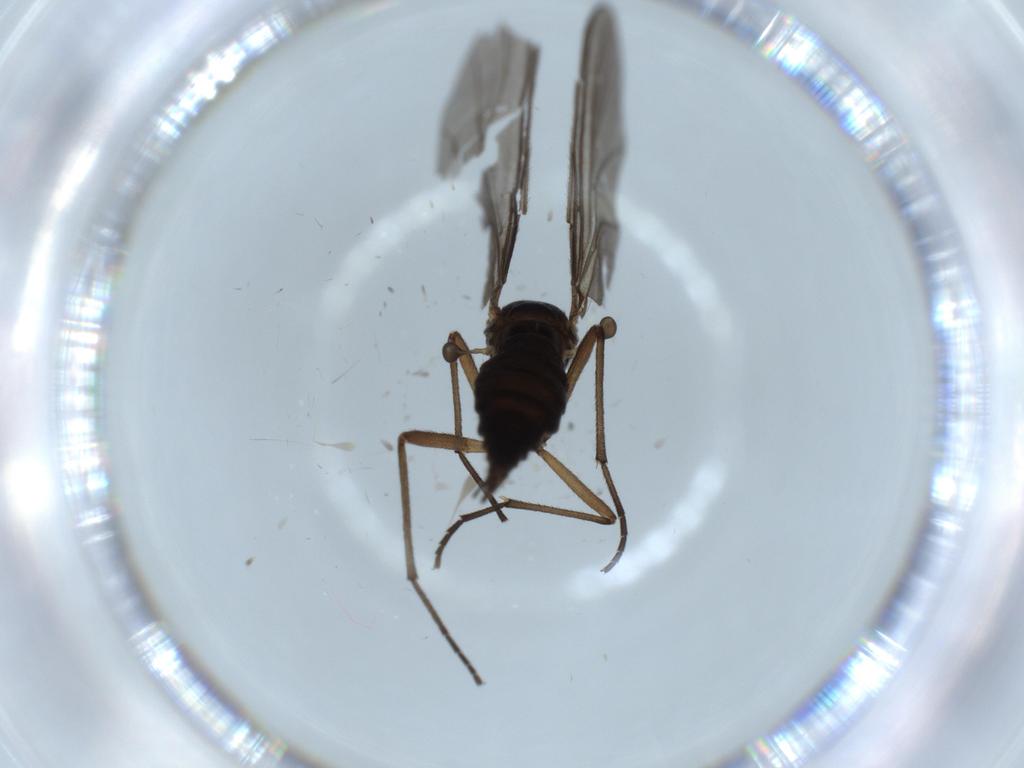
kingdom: Animalia
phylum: Arthropoda
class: Insecta
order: Diptera
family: Sciaridae
